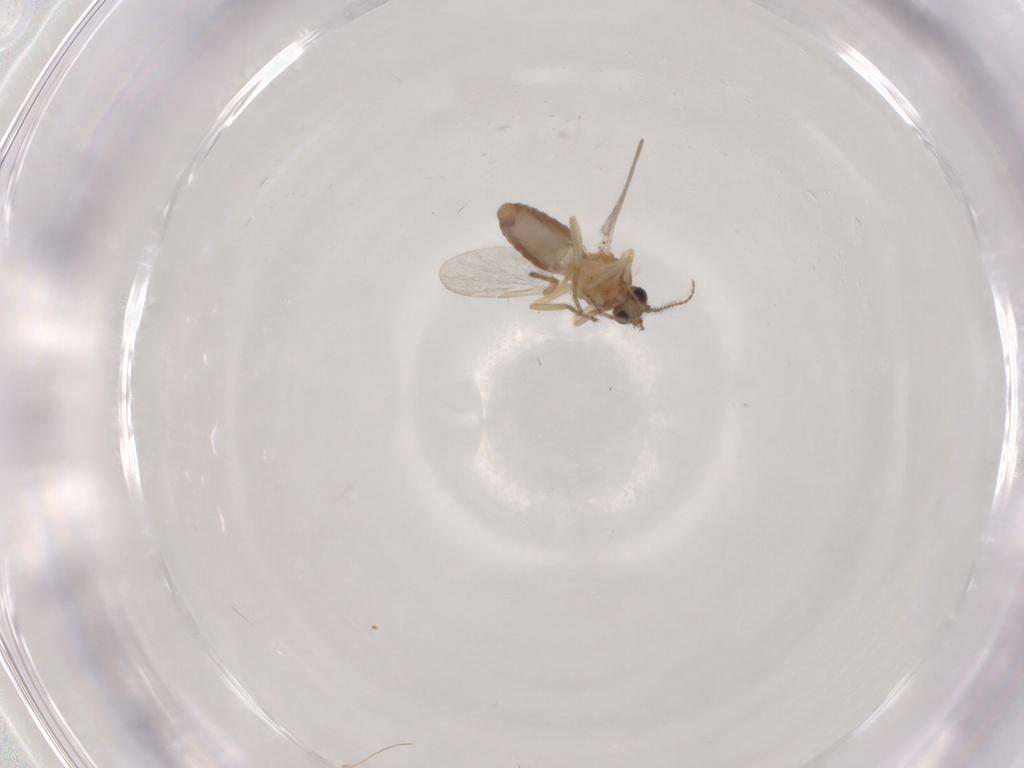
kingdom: Animalia
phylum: Arthropoda
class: Insecta
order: Diptera
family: Ceratopogonidae
